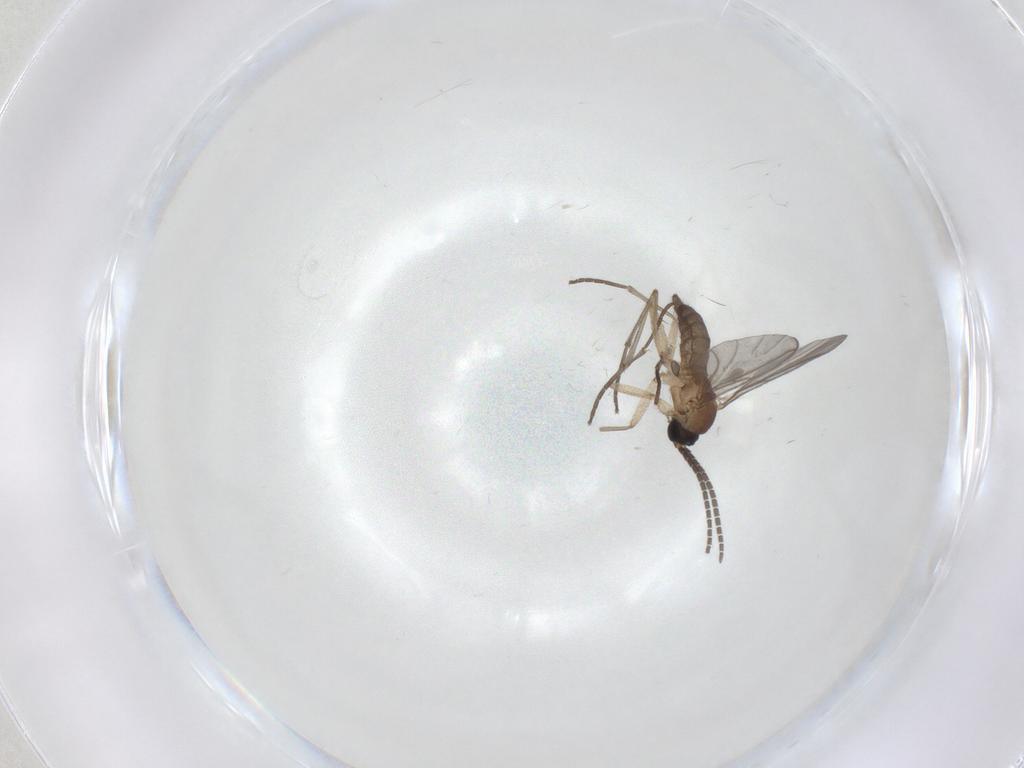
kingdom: Animalia
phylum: Arthropoda
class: Insecta
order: Diptera
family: Sciaridae
